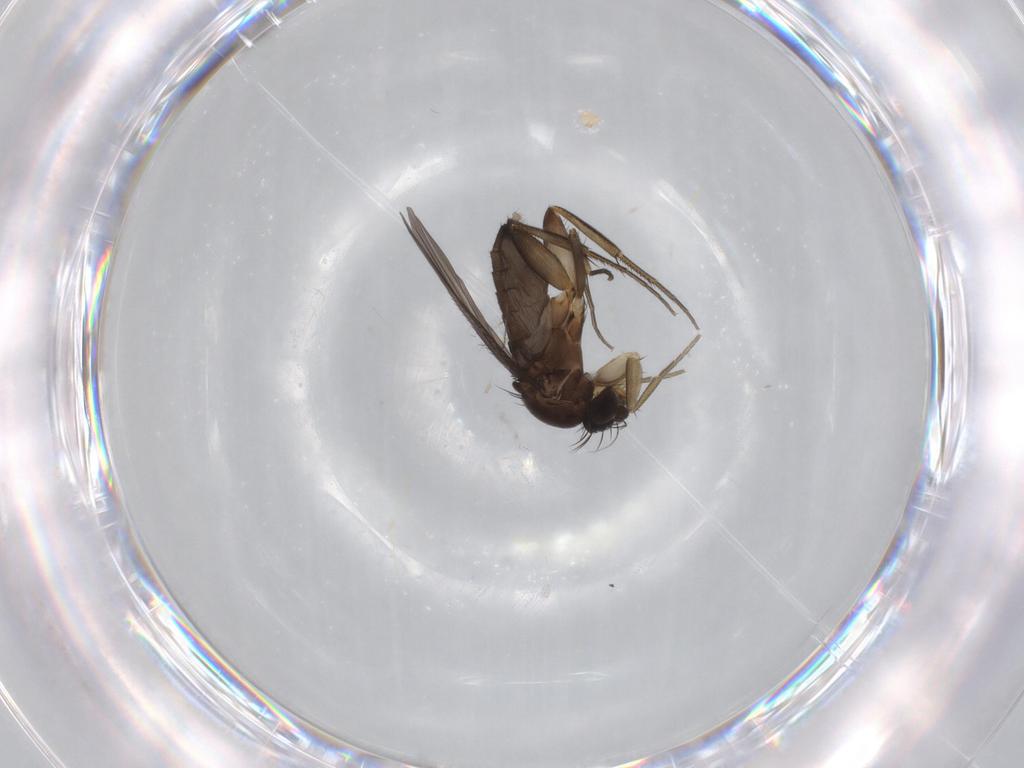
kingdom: Animalia
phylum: Arthropoda
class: Insecta
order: Diptera
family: Phoridae
